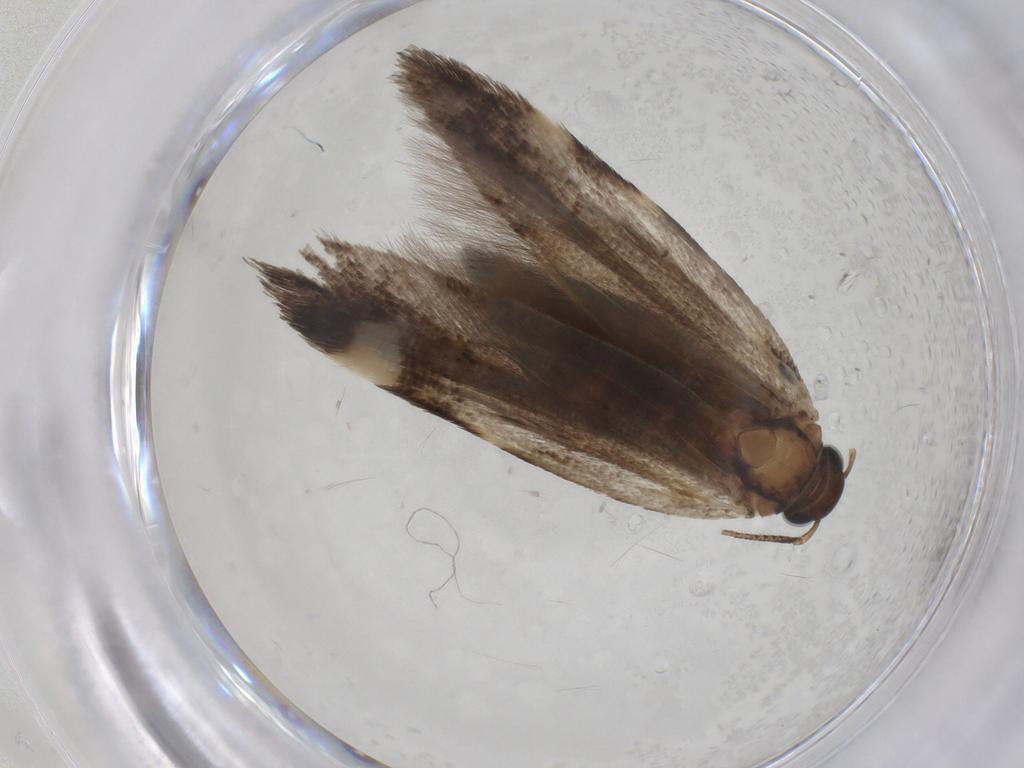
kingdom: Animalia
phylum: Arthropoda
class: Insecta
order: Lepidoptera
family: Gelechiidae
